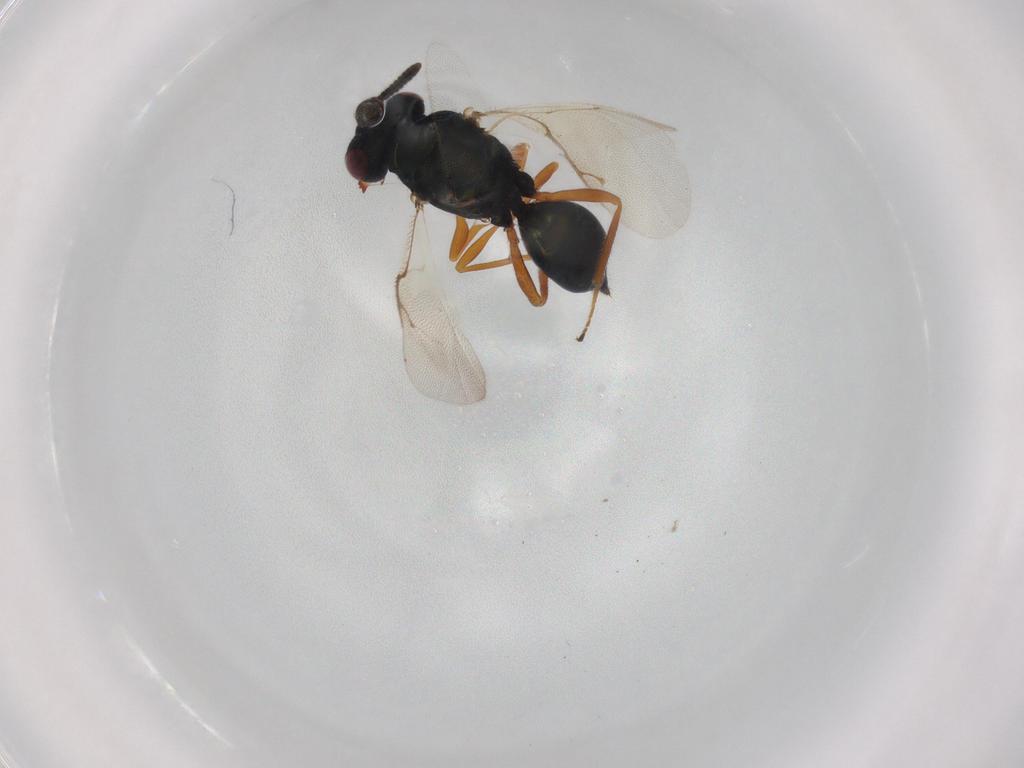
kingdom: Animalia
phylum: Arthropoda
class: Insecta
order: Hymenoptera
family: Pteromalidae
